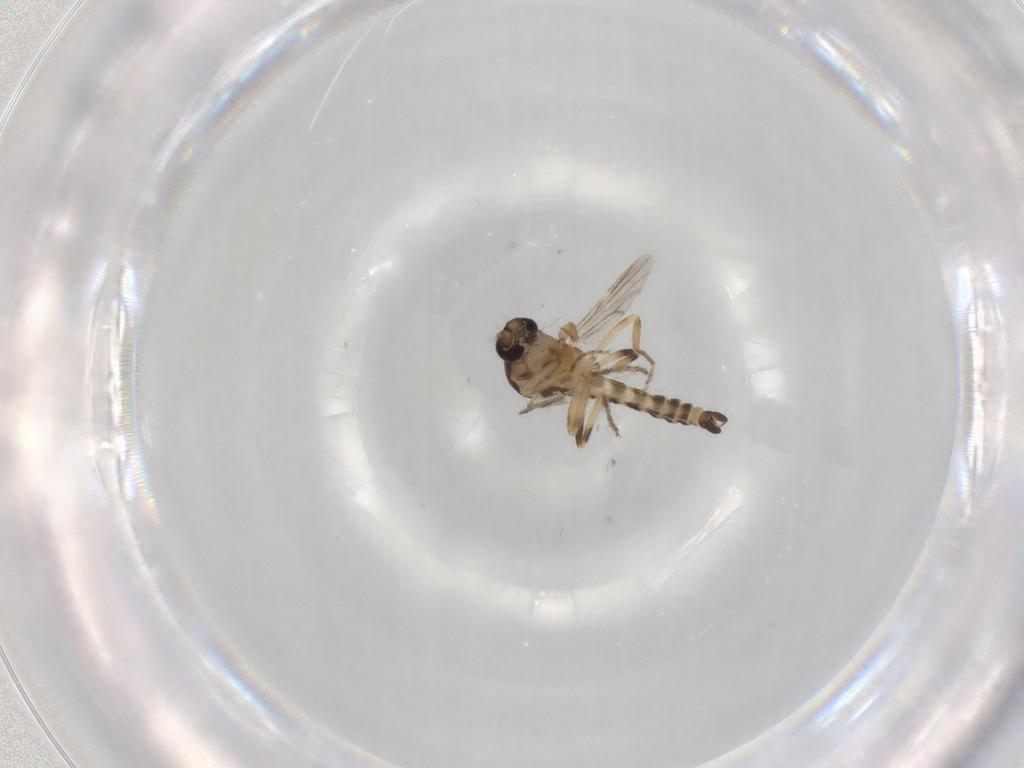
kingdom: Animalia
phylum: Arthropoda
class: Insecta
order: Diptera
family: Ceratopogonidae
